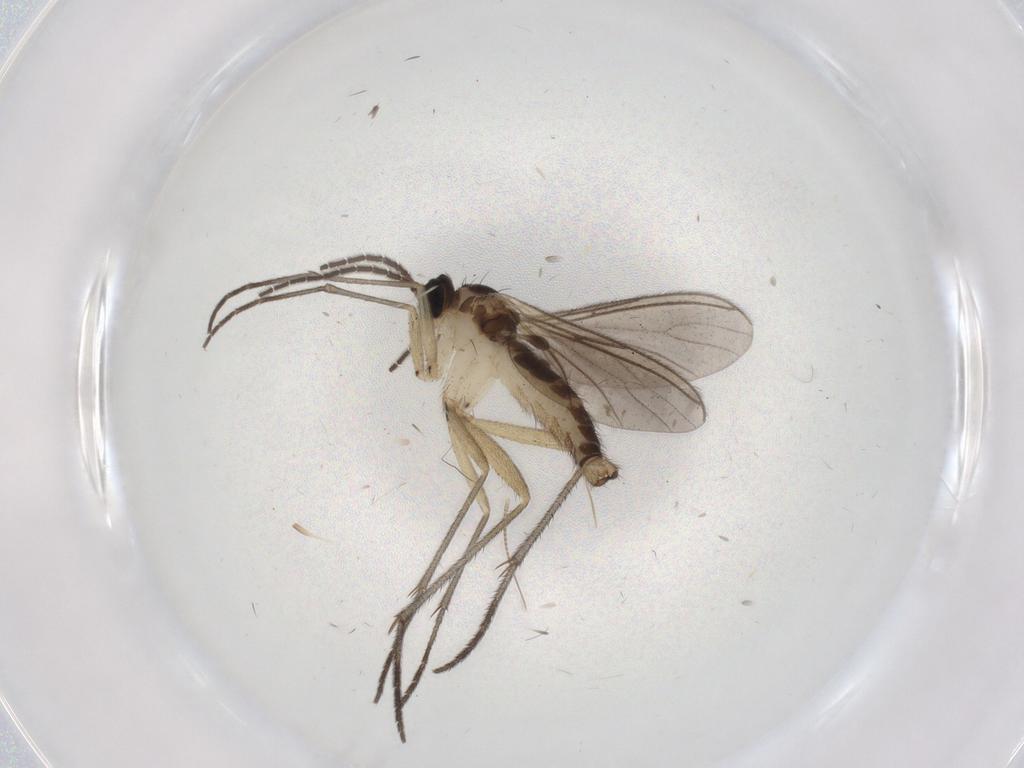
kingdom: Animalia
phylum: Arthropoda
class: Insecta
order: Diptera
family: Sciaridae
